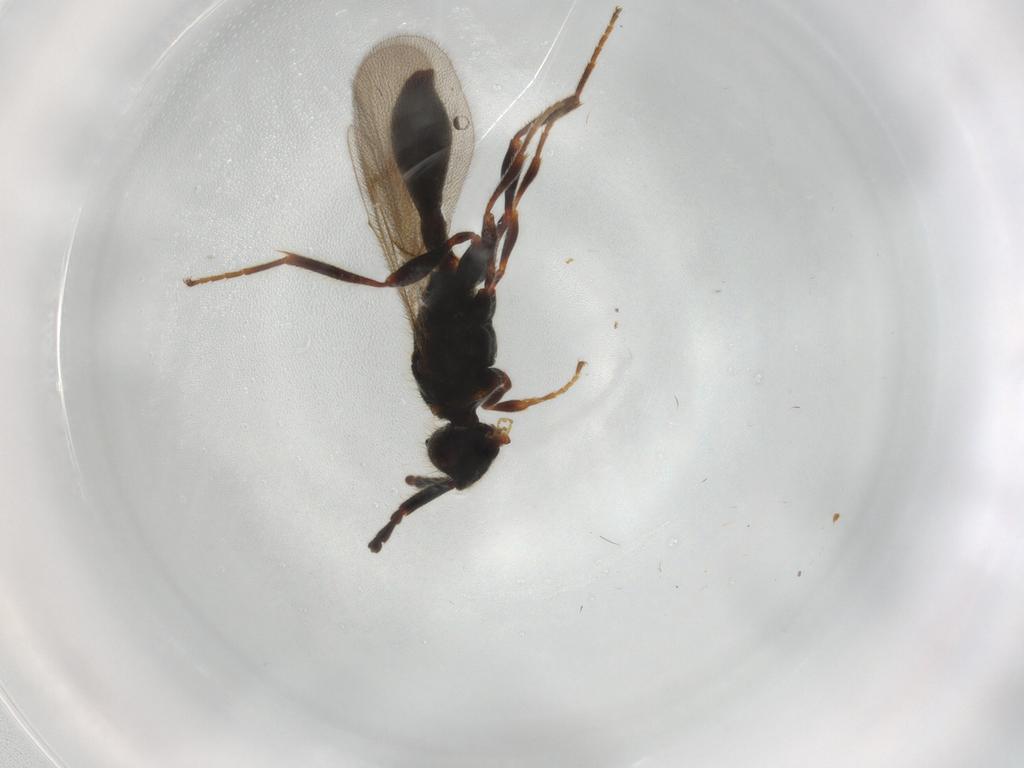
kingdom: Animalia
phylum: Arthropoda
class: Insecta
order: Hymenoptera
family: Diapriidae
